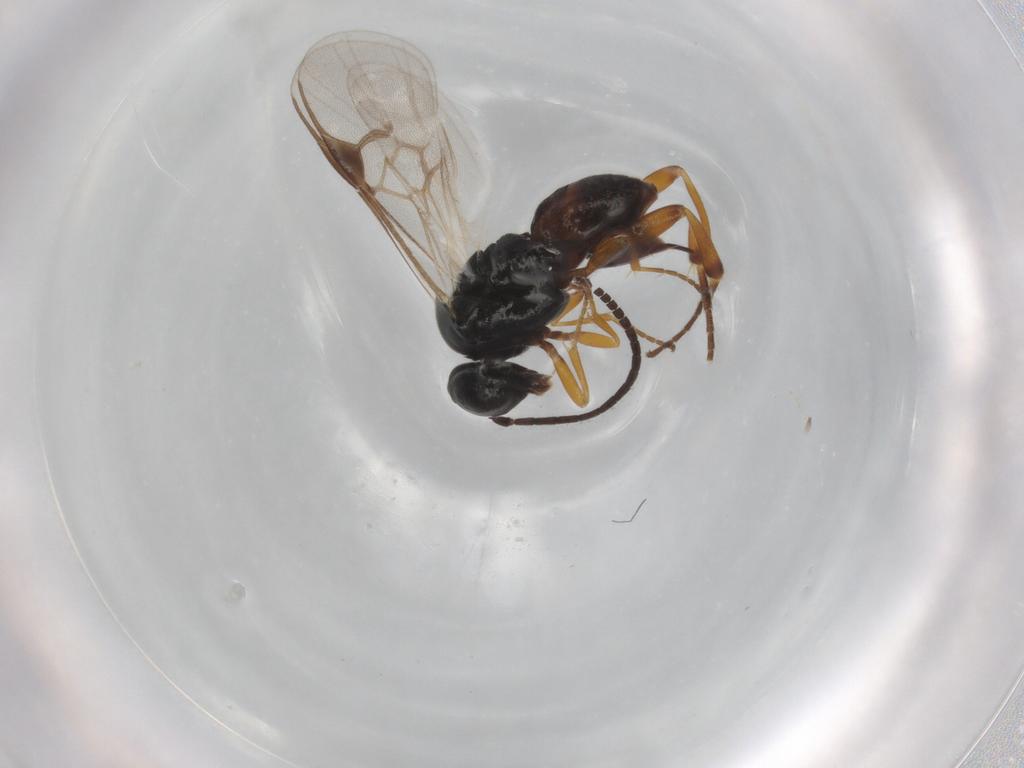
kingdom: Animalia
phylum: Arthropoda
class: Insecta
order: Hymenoptera
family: Braconidae
